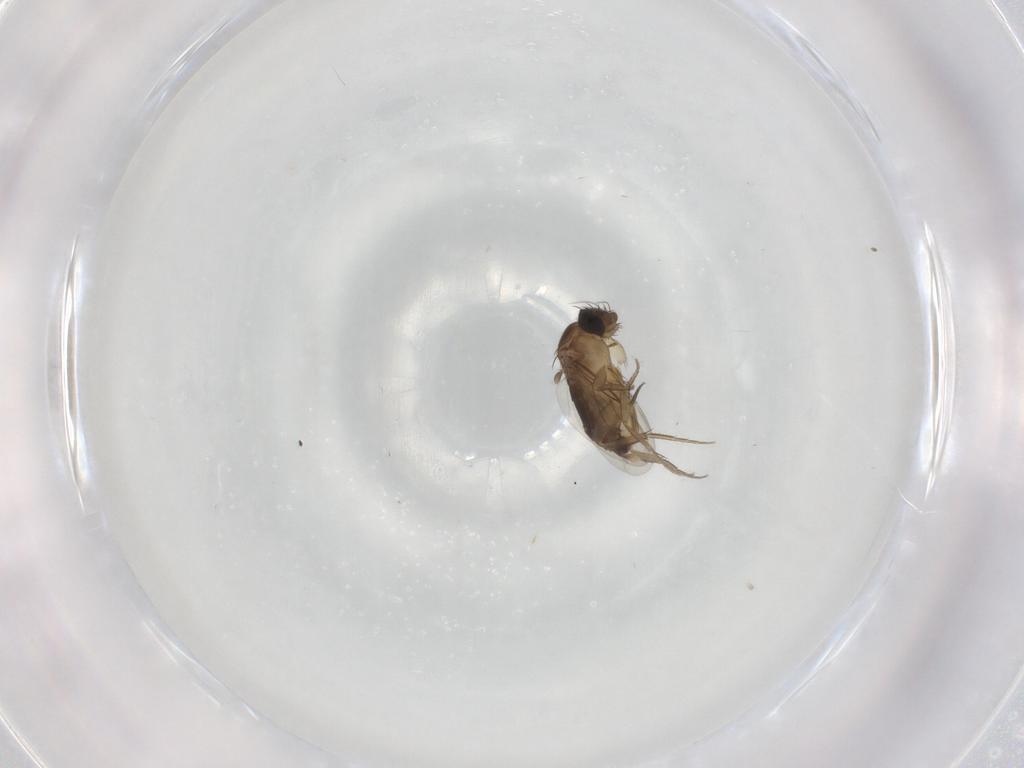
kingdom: Animalia
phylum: Arthropoda
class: Insecta
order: Diptera
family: Phoridae
